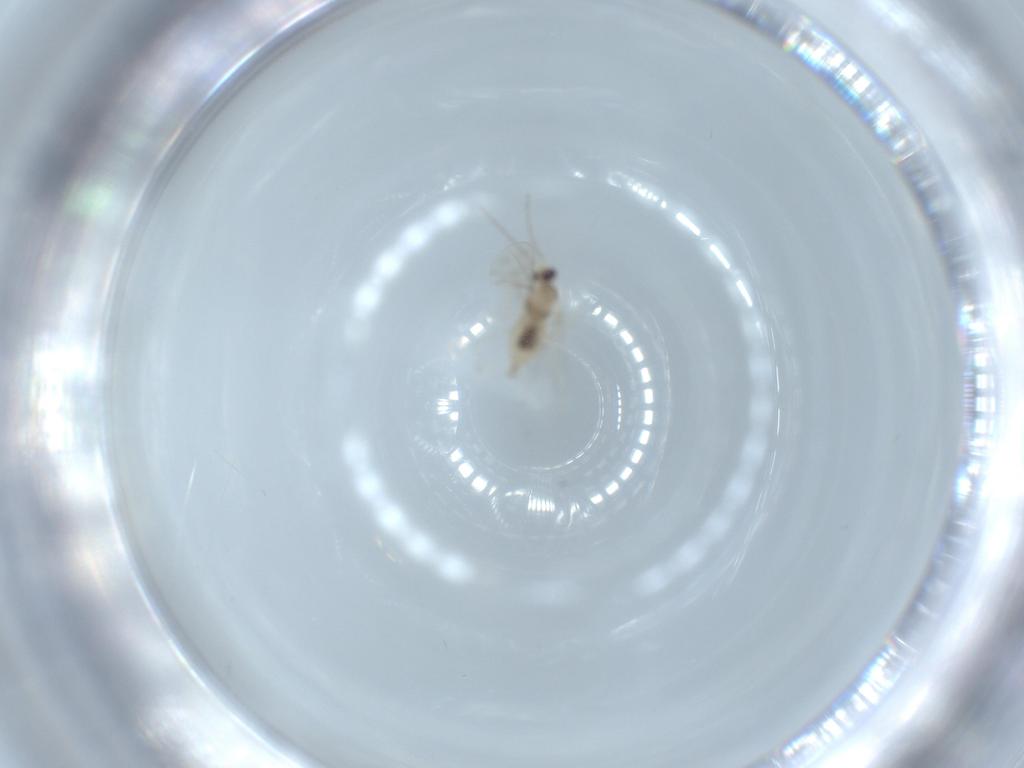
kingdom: Animalia
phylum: Arthropoda
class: Insecta
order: Diptera
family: Cecidomyiidae
